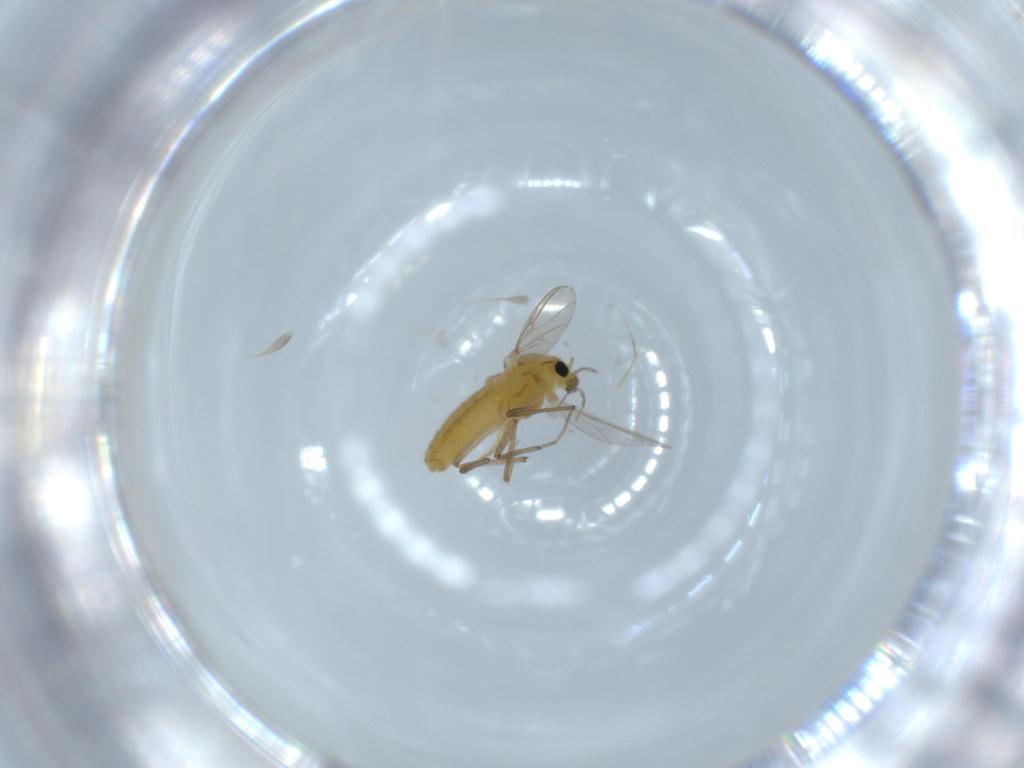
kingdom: Animalia
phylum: Arthropoda
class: Insecta
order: Diptera
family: Chironomidae
